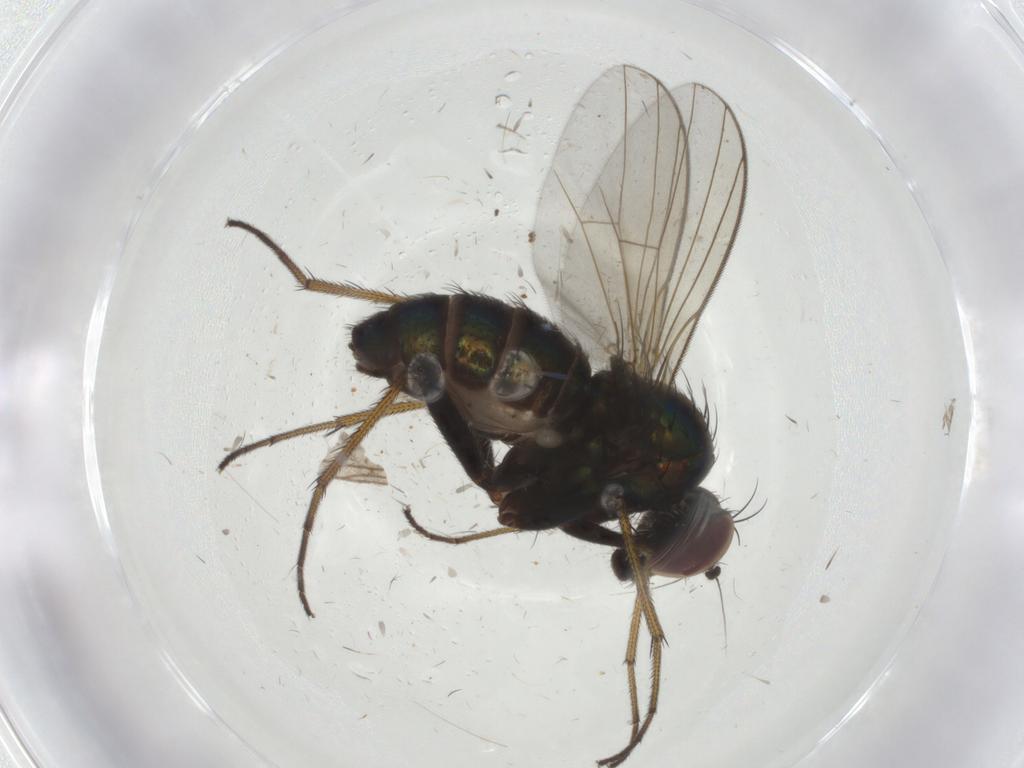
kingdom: Animalia
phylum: Arthropoda
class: Insecta
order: Diptera
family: Dolichopodidae
